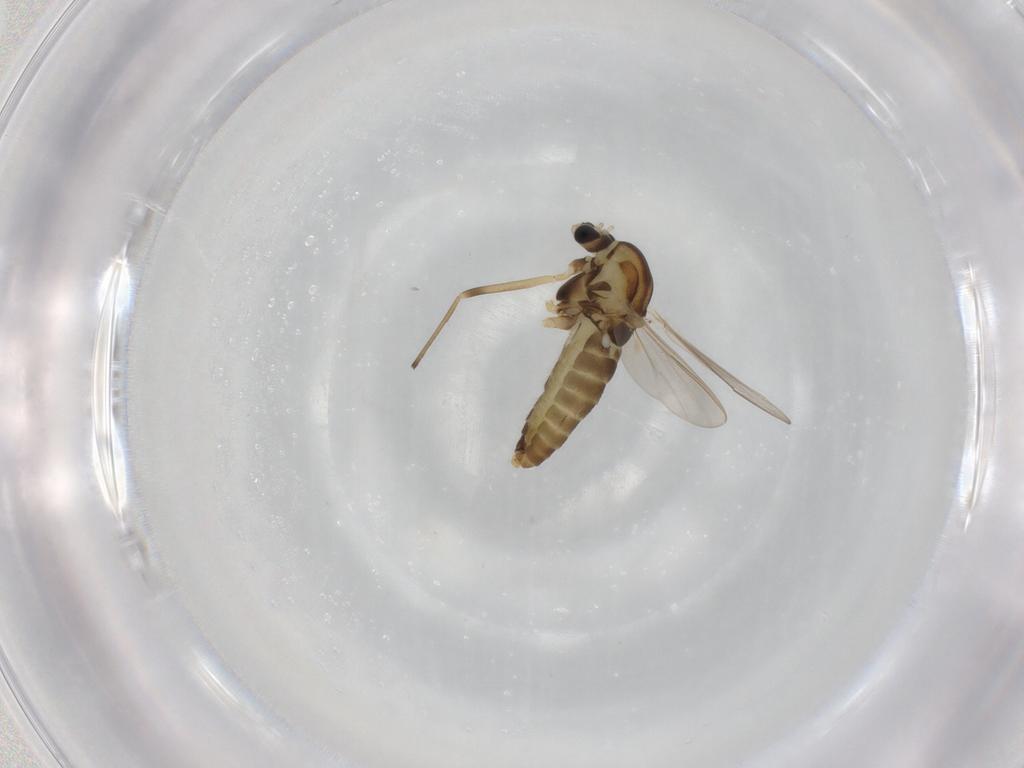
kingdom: Animalia
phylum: Arthropoda
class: Insecta
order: Diptera
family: Chironomidae
